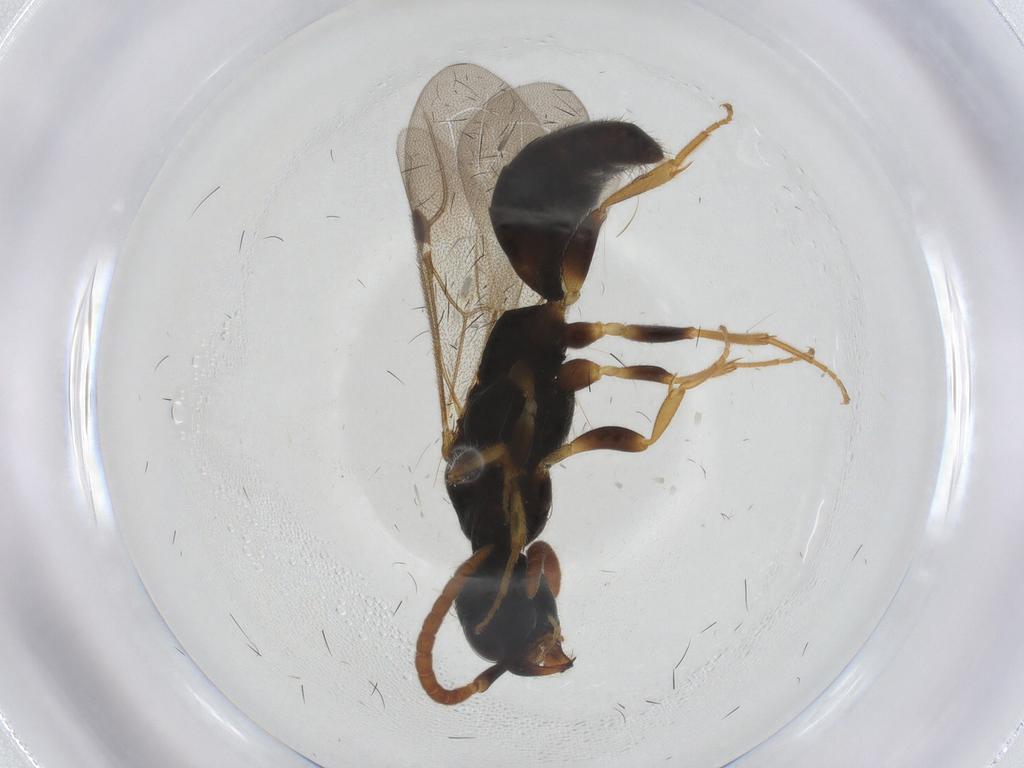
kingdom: Animalia
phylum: Arthropoda
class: Insecta
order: Hymenoptera
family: Bethylidae
